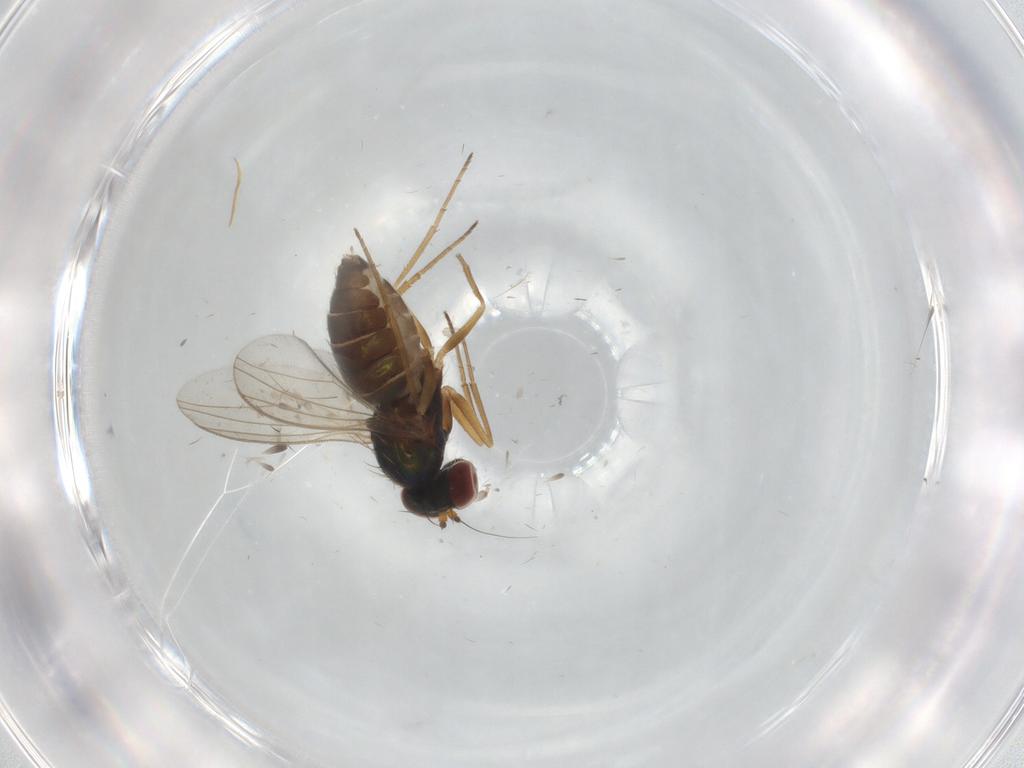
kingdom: Animalia
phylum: Arthropoda
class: Insecta
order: Diptera
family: Dolichopodidae
